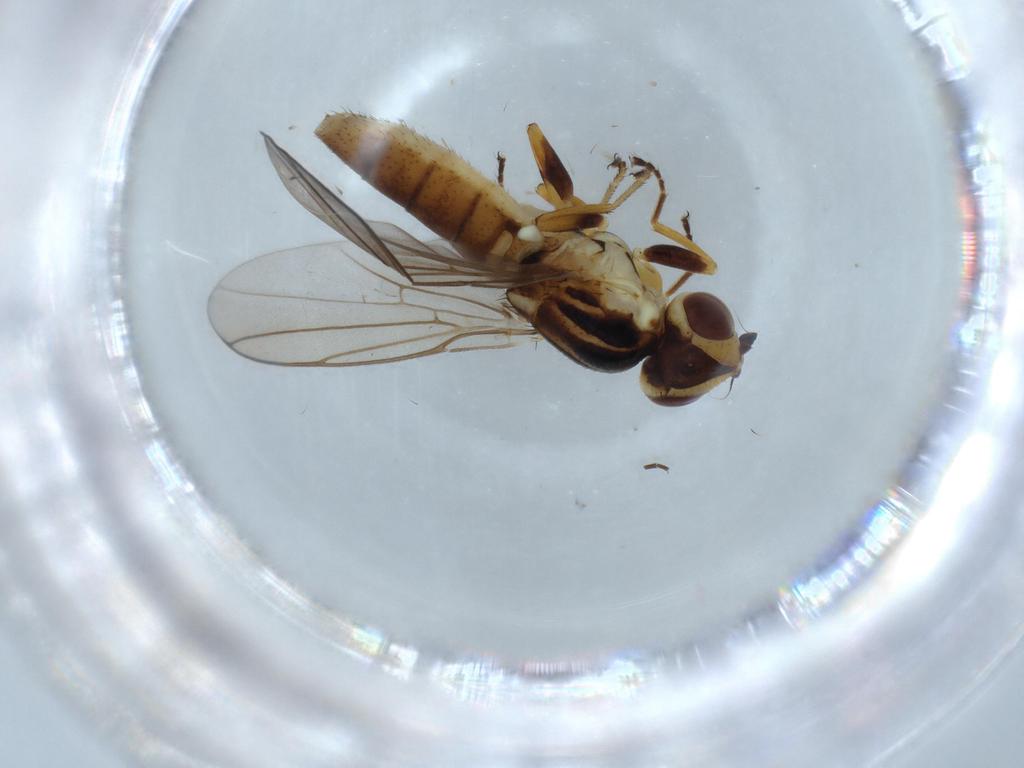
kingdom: Animalia
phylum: Arthropoda
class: Insecta
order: Diptera
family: Chloropidae
